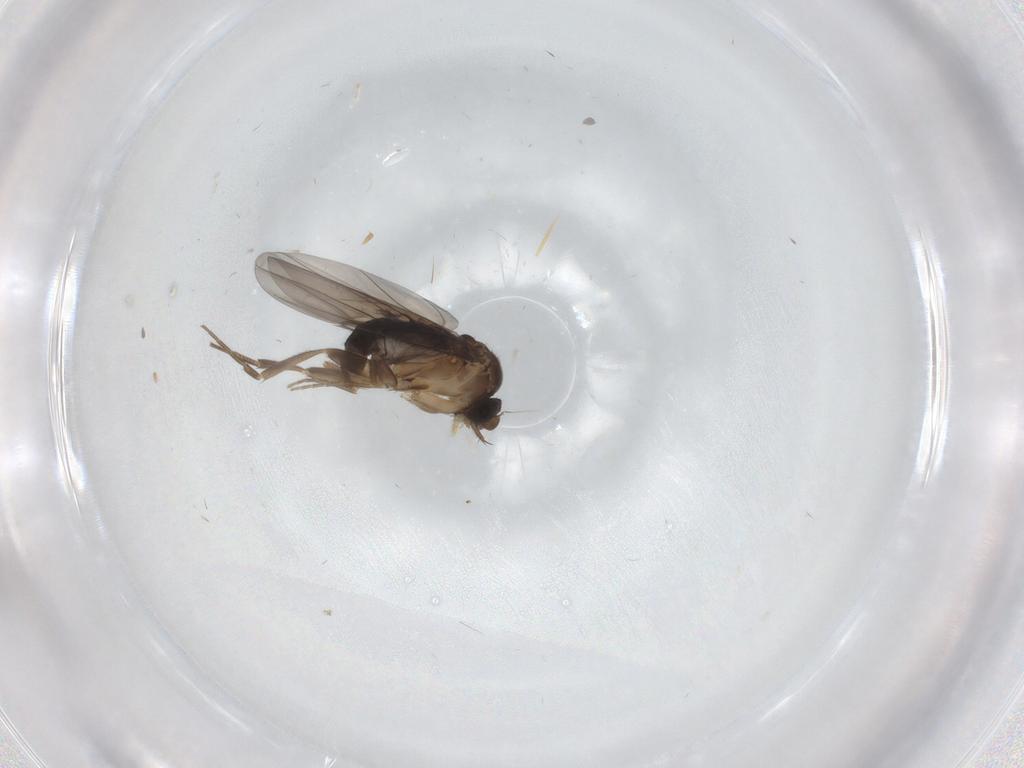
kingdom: Animalia
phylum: Arthropoda
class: Insecta
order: Diptera
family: Phoridae
